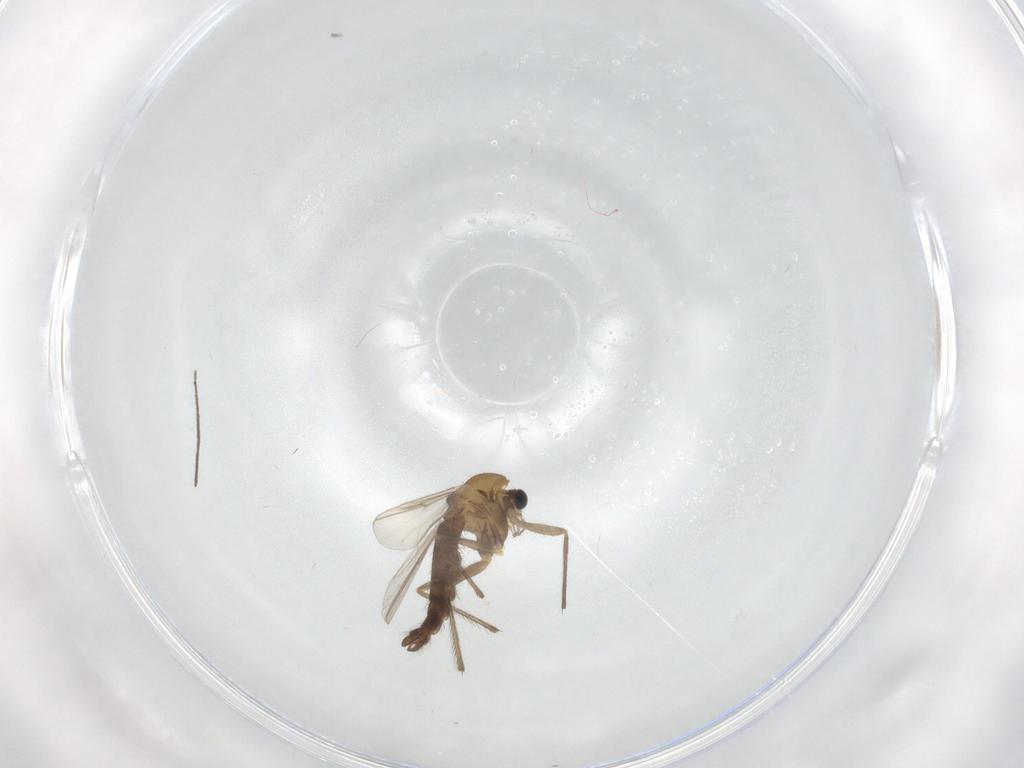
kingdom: Animalia
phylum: Arthropoda
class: Insecta
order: Diptera
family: Chironomidae
